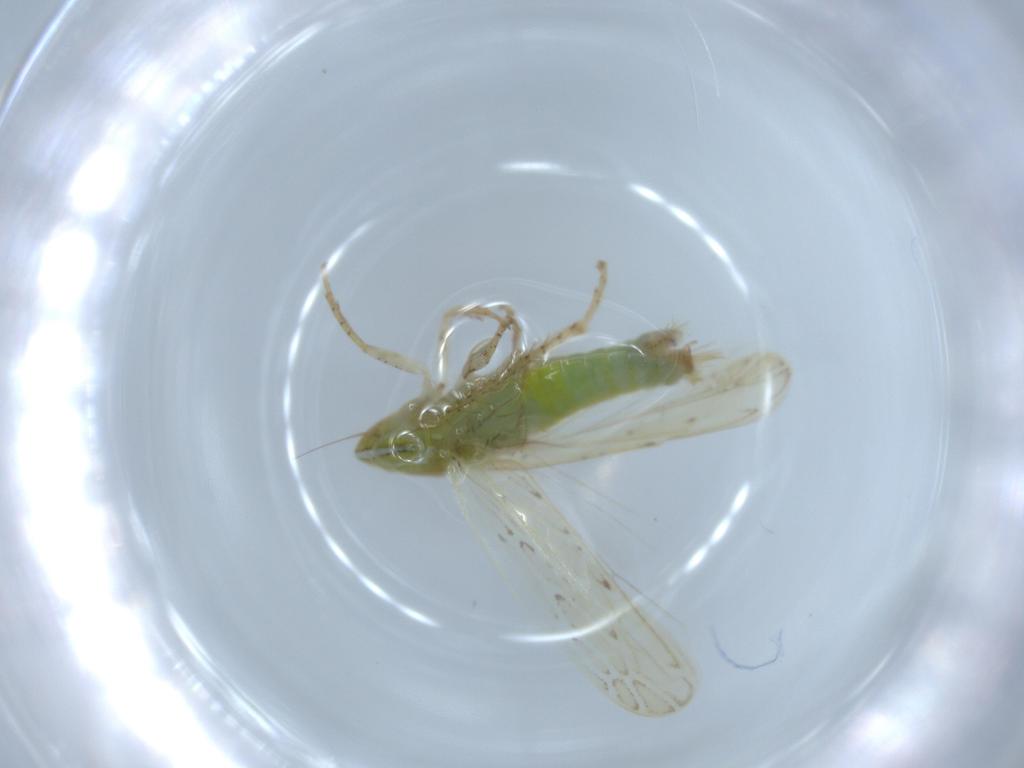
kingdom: Animalia
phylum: Arthropoda
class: Insecta
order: Hemiptera
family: Cicadellidae
